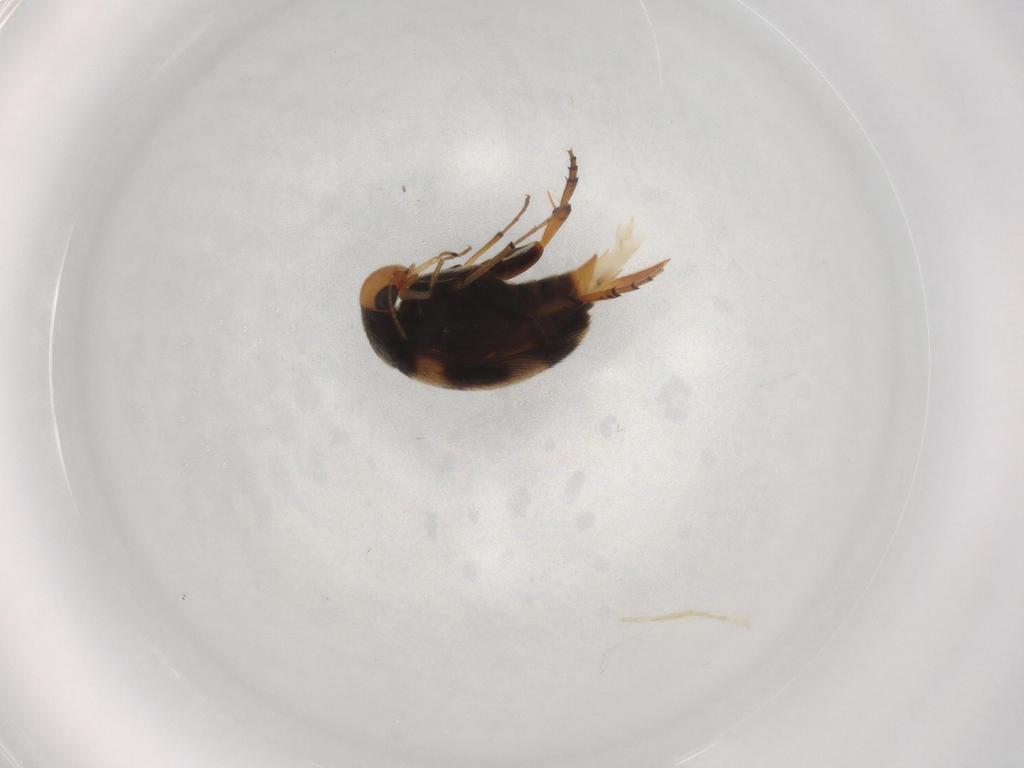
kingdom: Animalia
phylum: Arthropoda
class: Insecta
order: Coleoptera
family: Mordellidae
